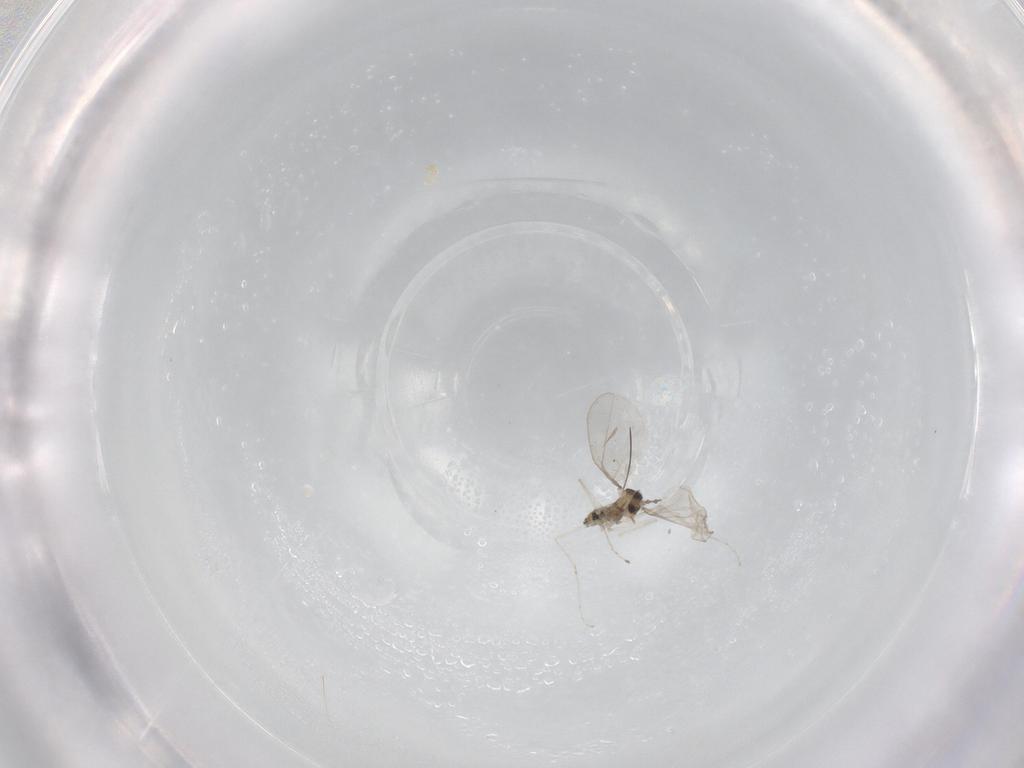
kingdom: Animalia
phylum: Arthropoda
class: Insecta
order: Diptera
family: Cecidomyiidae
